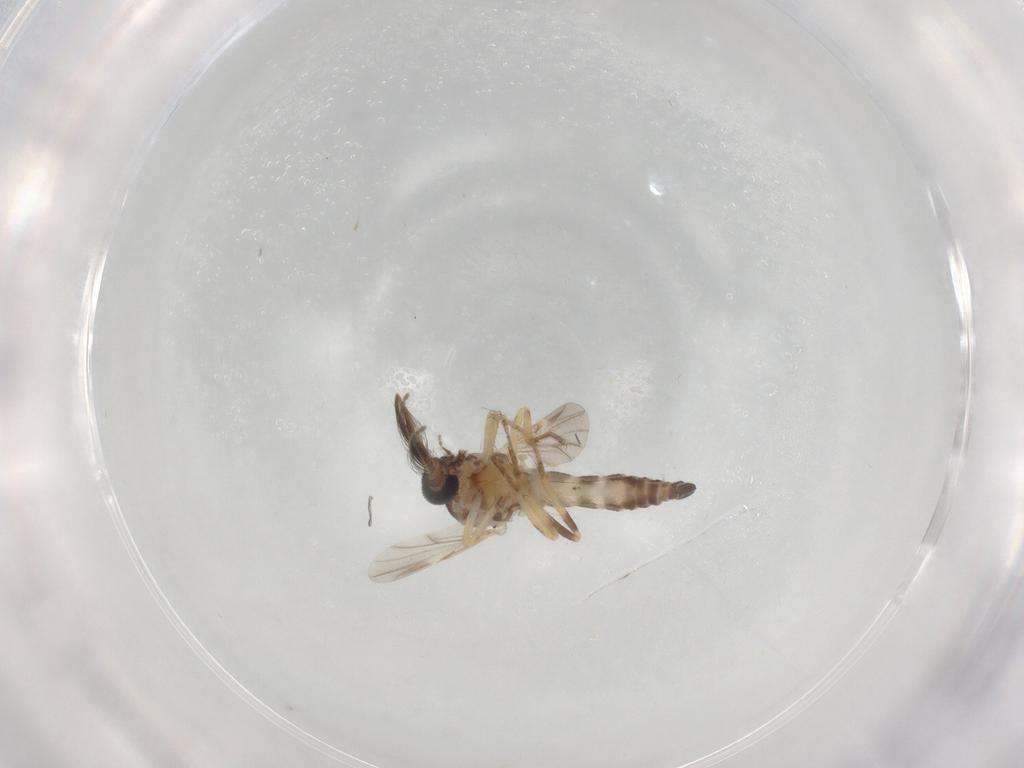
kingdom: Animalia
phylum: Arthropoda
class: Insecta
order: Diptera
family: Ceratopogonidae
